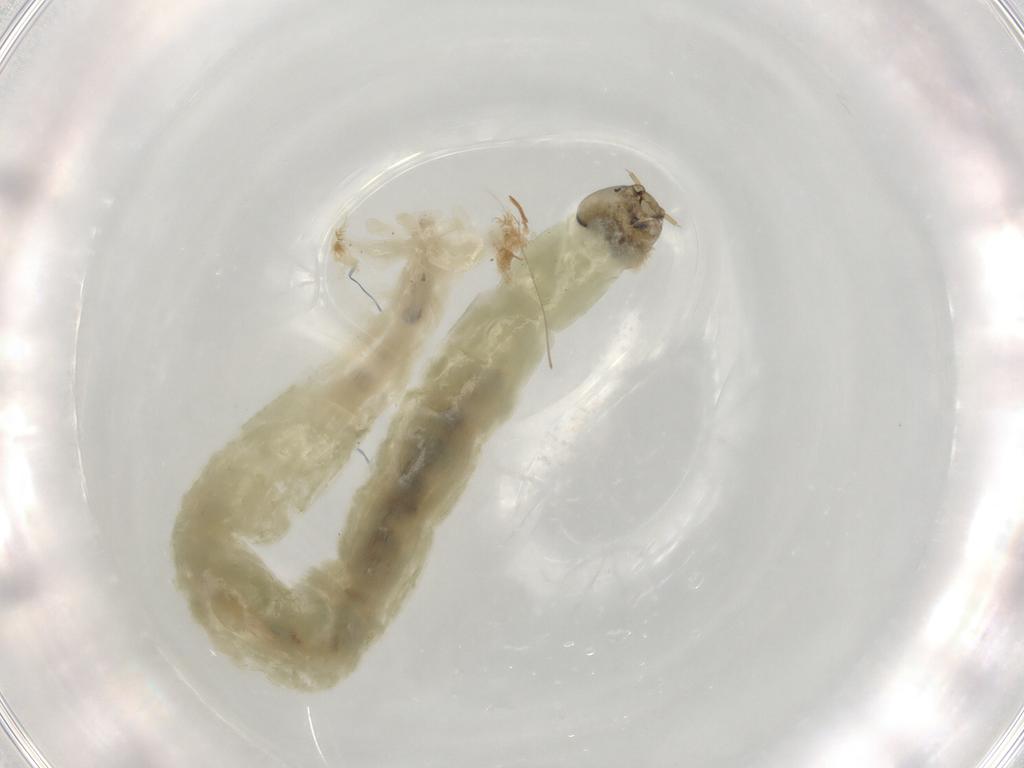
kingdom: Animalia
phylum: Arthropoda
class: Insecta
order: Diptera
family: Chironomidae
